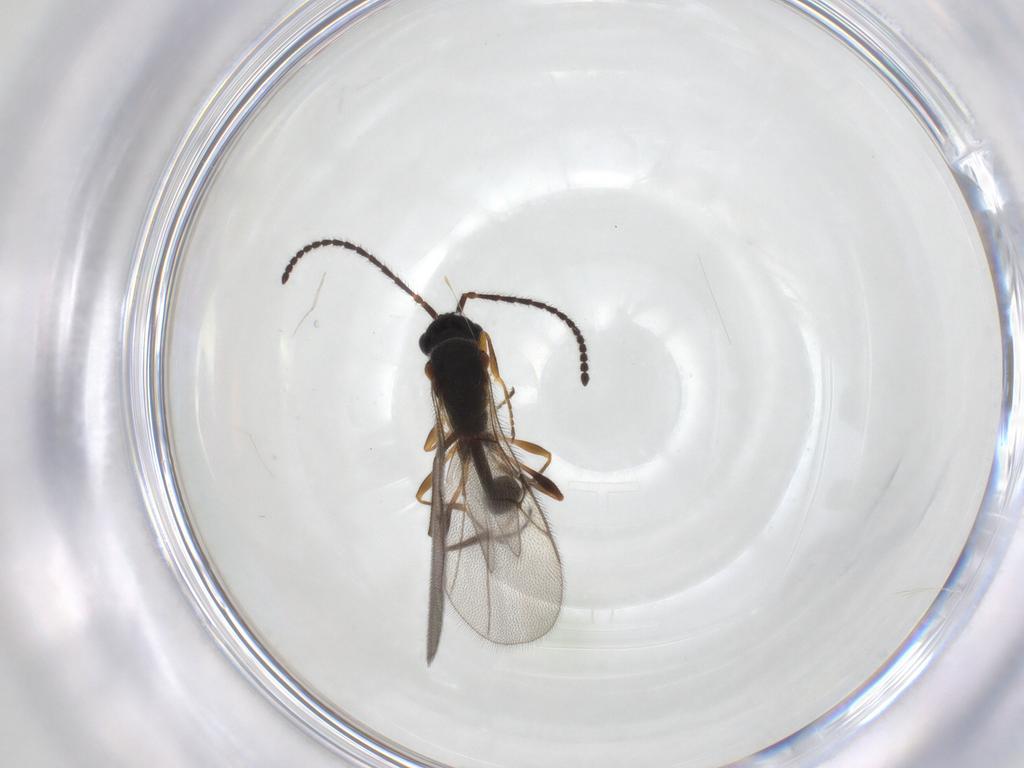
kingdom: Animalia
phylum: Arthropoda
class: Insecta
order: Hymenoptera
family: Diapriidae
